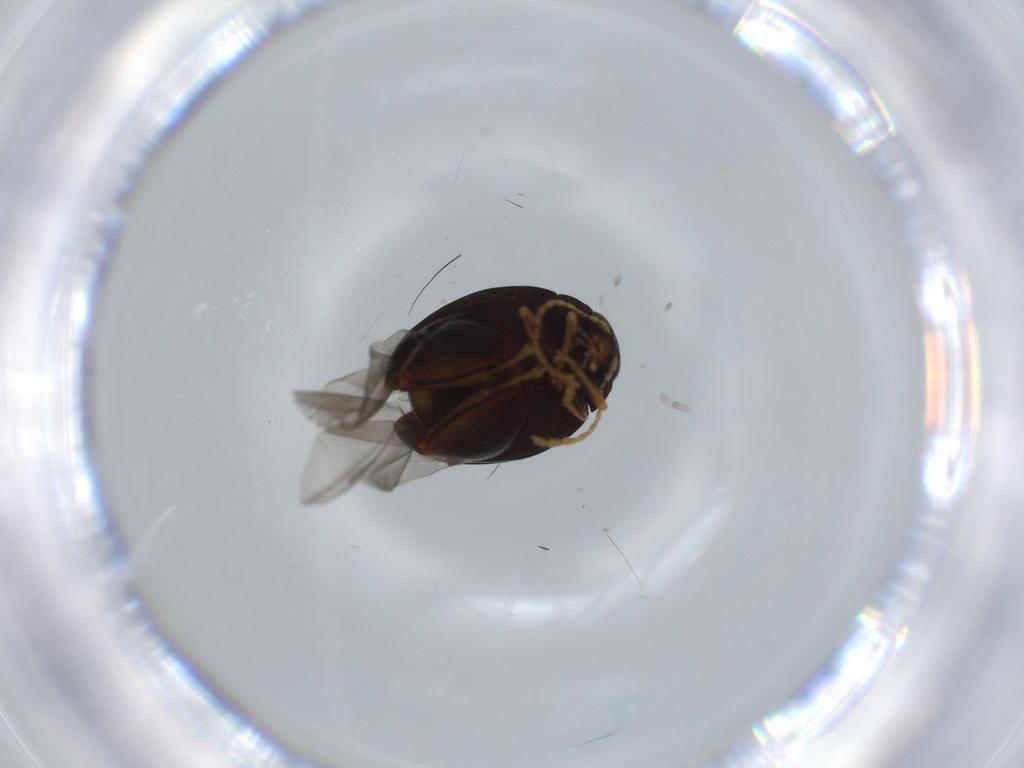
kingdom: Animalia
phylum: Arthropoda
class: Insecta
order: Coleoptera
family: Chrysomelidae
